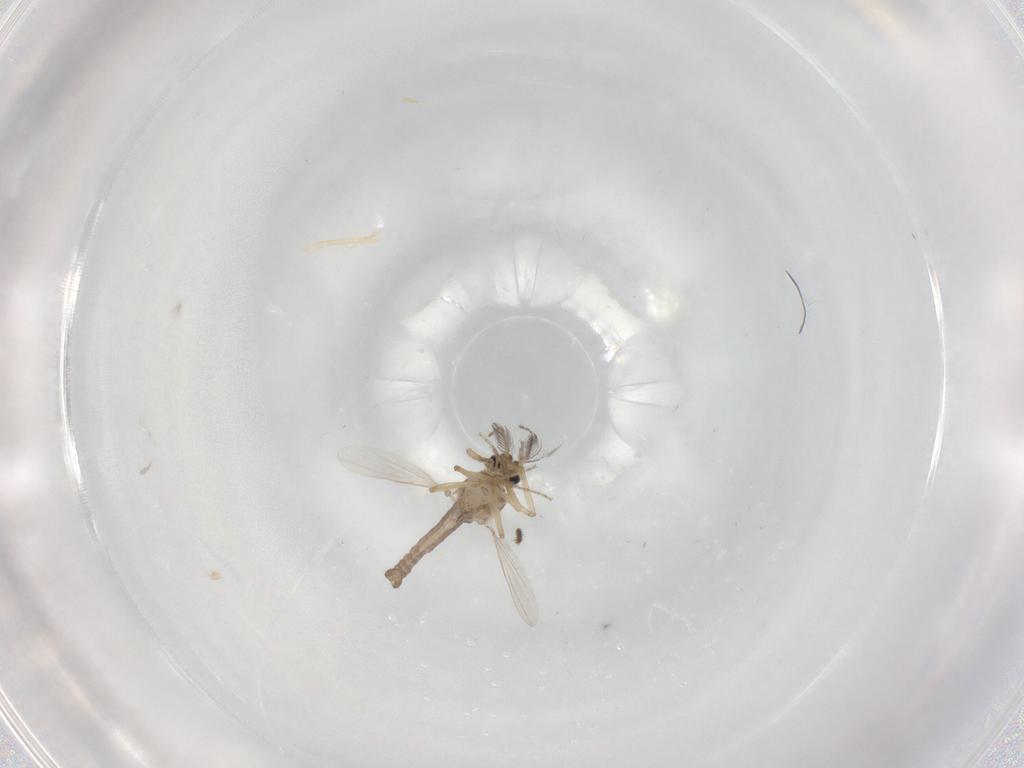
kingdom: Animalia
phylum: Arthropoda
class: Insecta
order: Diptera
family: Ceratopogonidae
